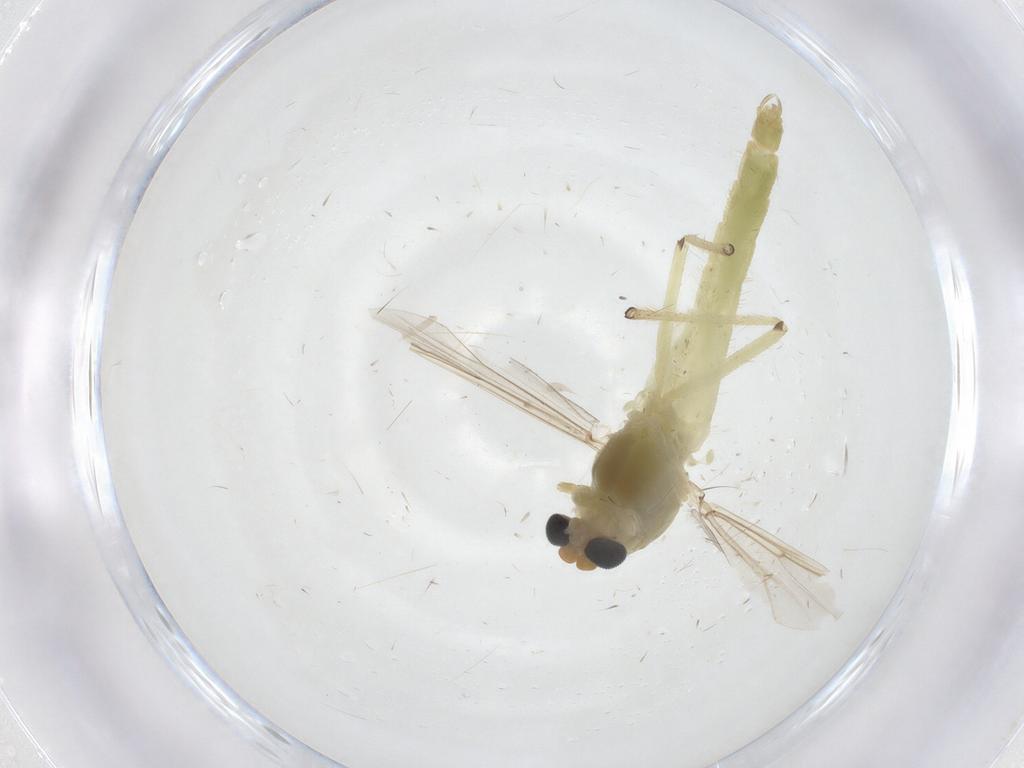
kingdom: Animalia
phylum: Arthropoda
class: Insecta
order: Diptera
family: Chironomidae
